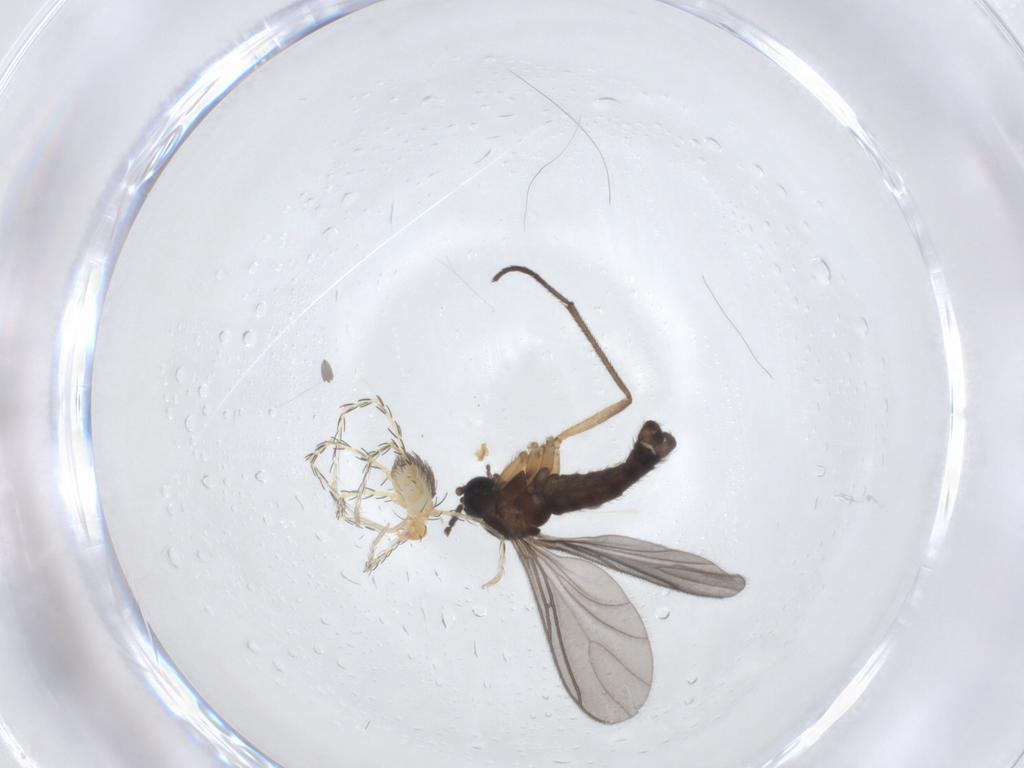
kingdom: Animalia
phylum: Arthropoda
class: Insecta
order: Diptera
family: Sciaridae
